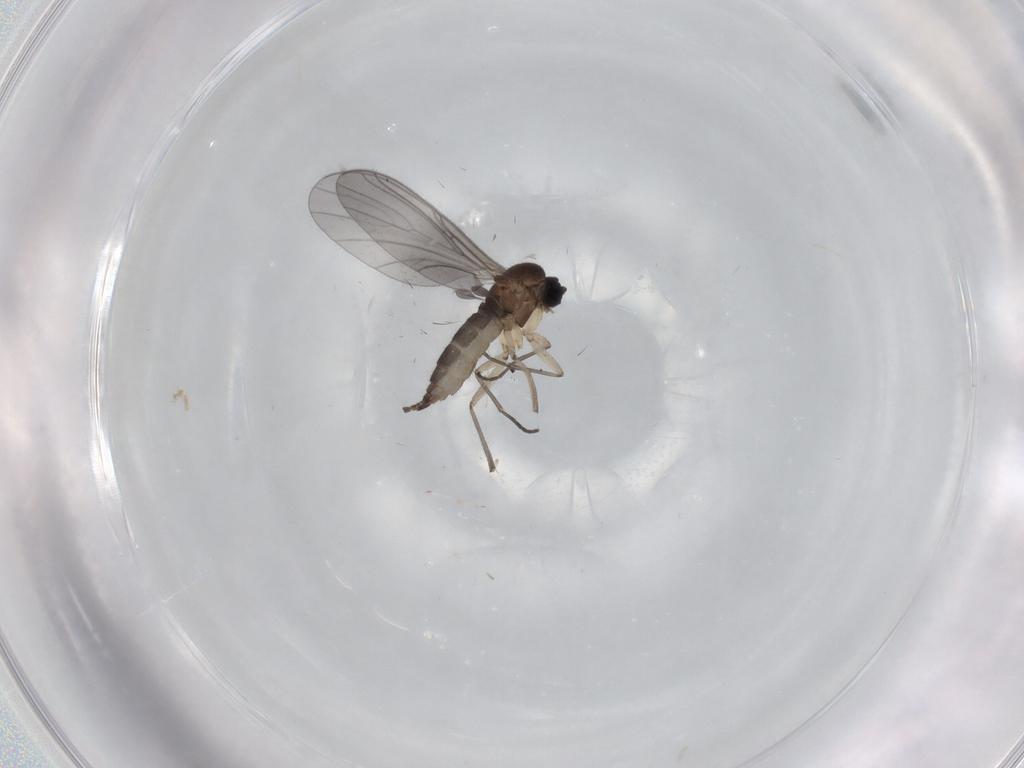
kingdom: Animalia
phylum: Arthropoda
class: Insecta
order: Diptera
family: Sciaridae
